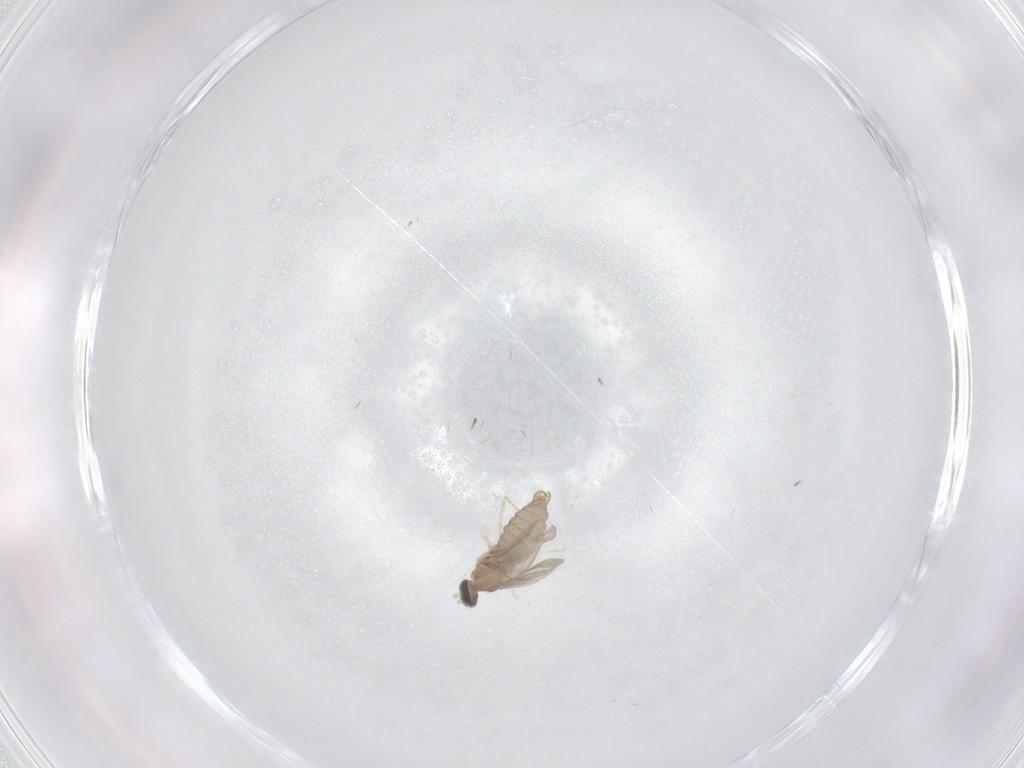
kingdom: Animalia
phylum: Arthropoda
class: Insecta
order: Diptera
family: Cecidomyiidae
